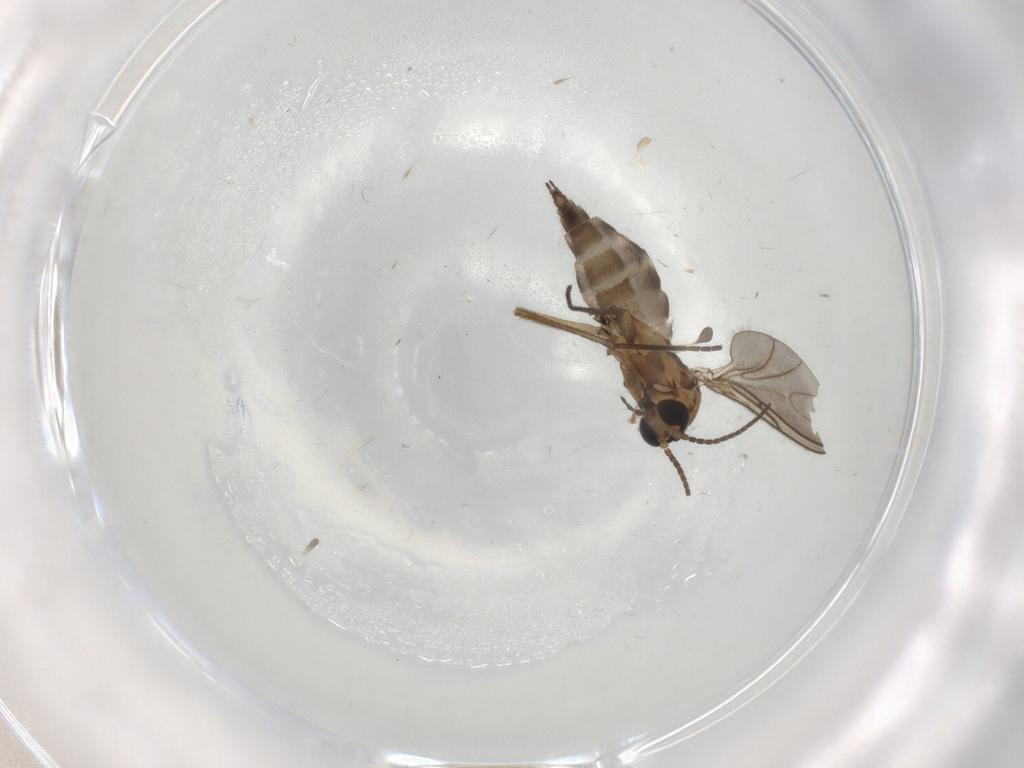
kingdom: Animalia
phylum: Arthropoda
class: Insecta
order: Diptera
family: Sciaridae
